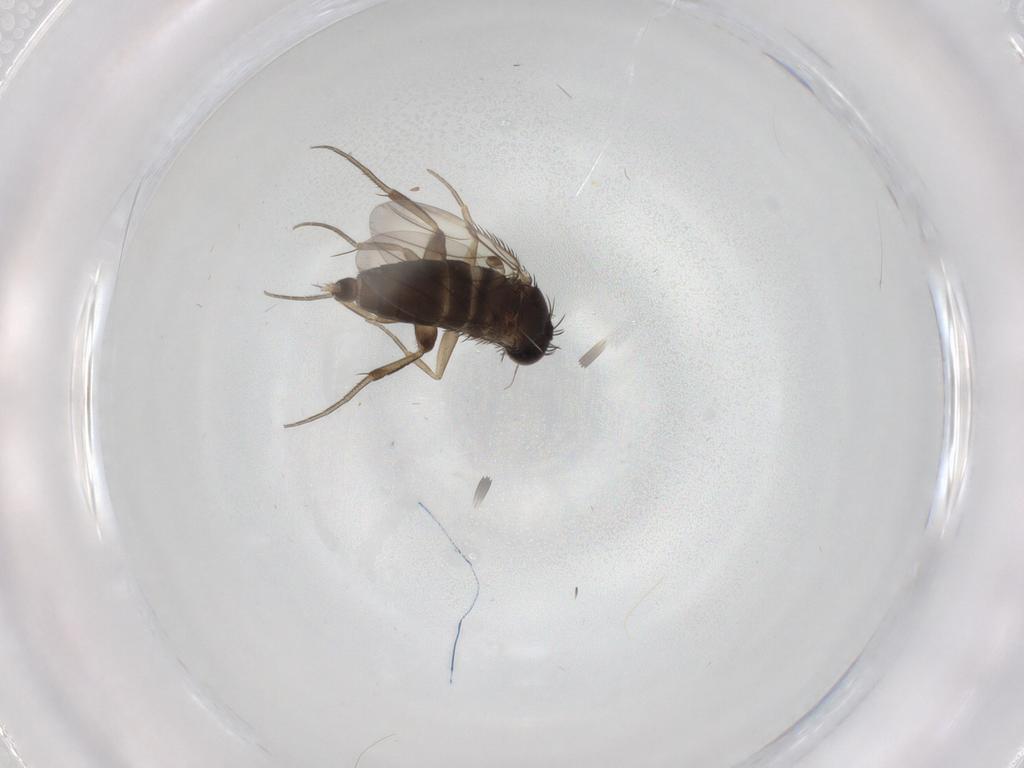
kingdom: Animalia
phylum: Arthropoda
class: Insecta
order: Diptera
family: Phoridae
